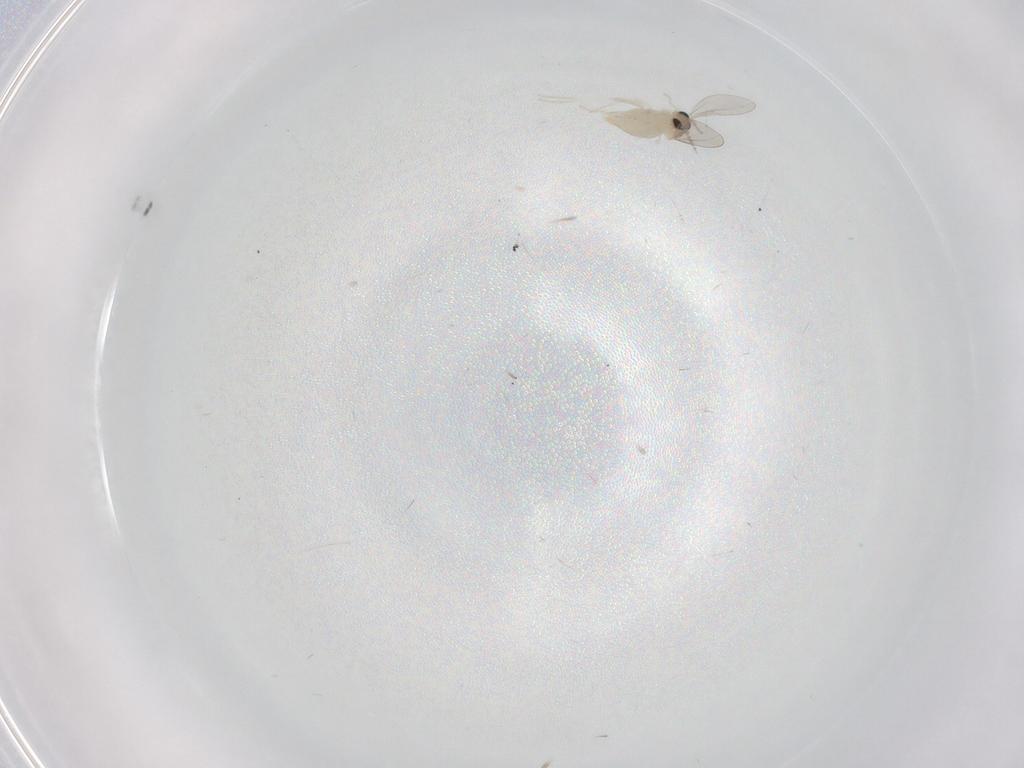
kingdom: Animalia
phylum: Arthropoda
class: Insecta
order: Diptera
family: Cecidomyiidae
